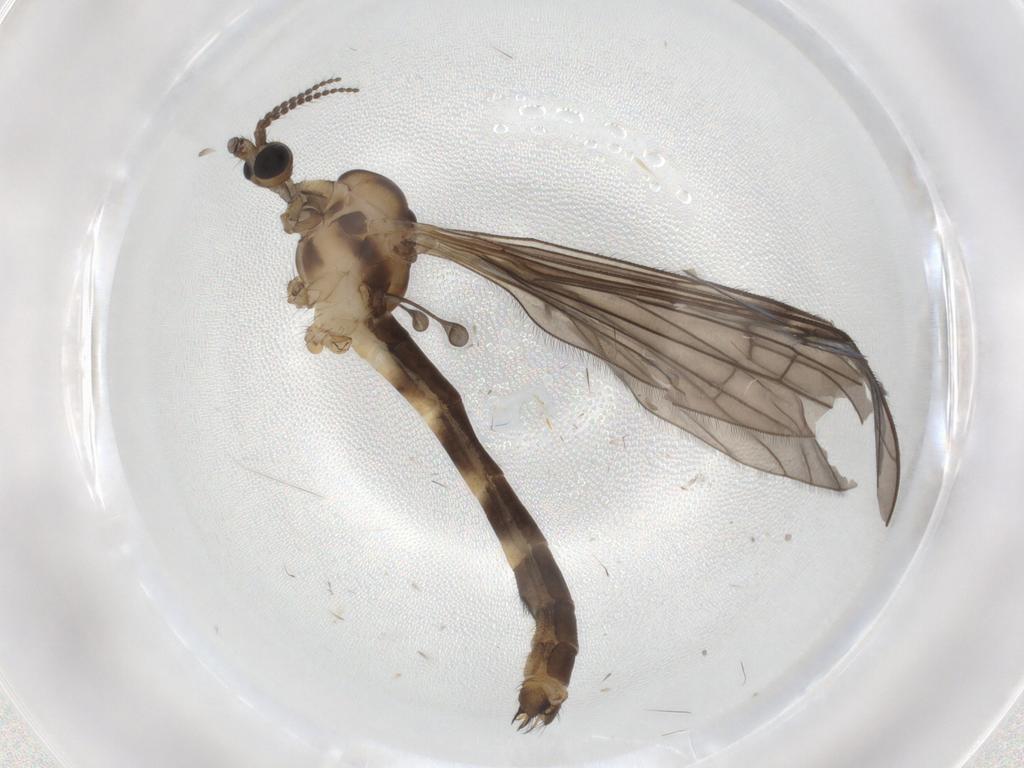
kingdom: Animalia
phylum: Arthropoda
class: Insecta
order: Diptera
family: Limoniidae
